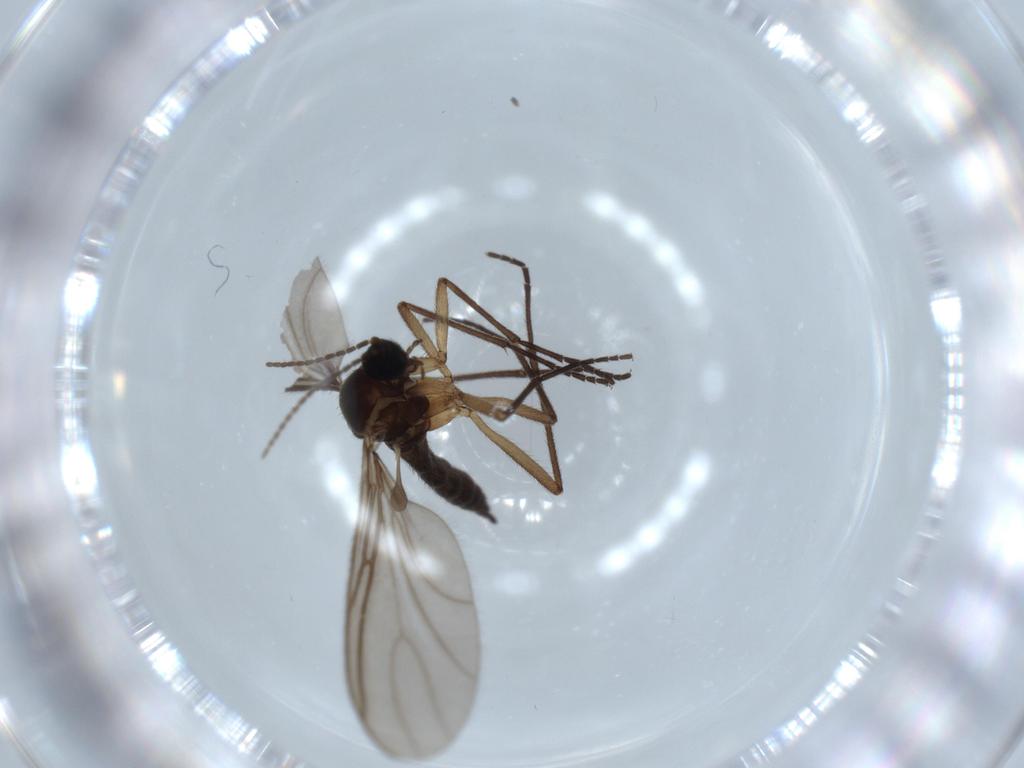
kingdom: Animalia
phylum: Arthropoda
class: Insecta
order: Diptera
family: Sciaridae
